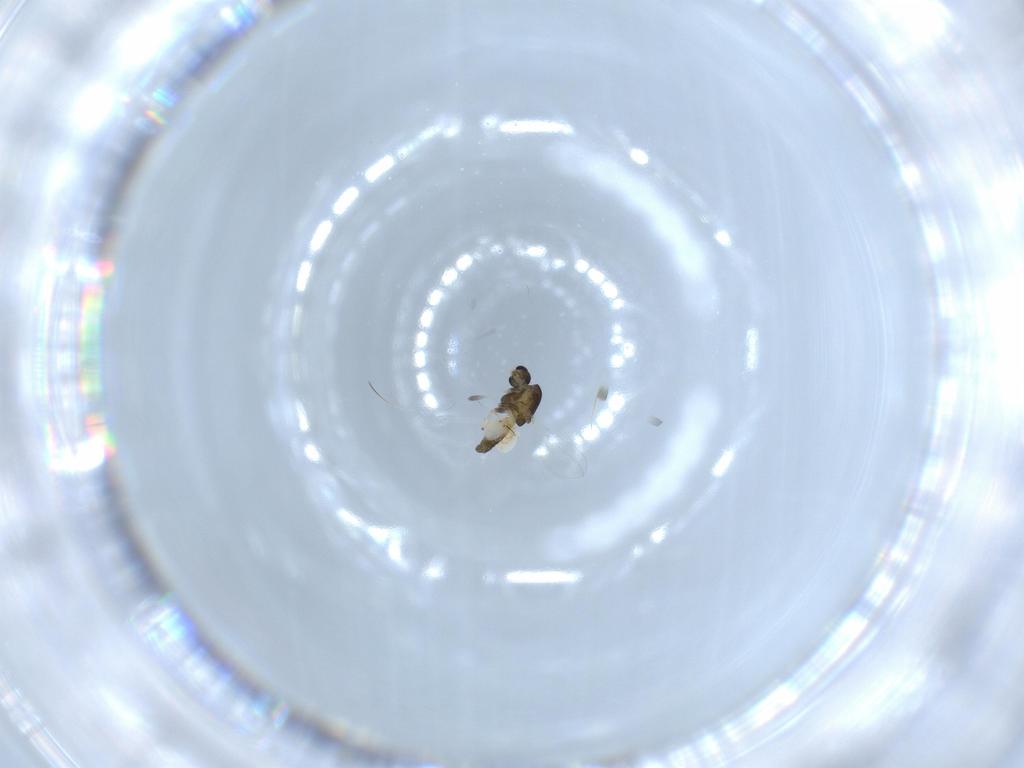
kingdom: Animalia
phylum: Arthropoda
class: Insecta
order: Diptera
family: Chironomidae
